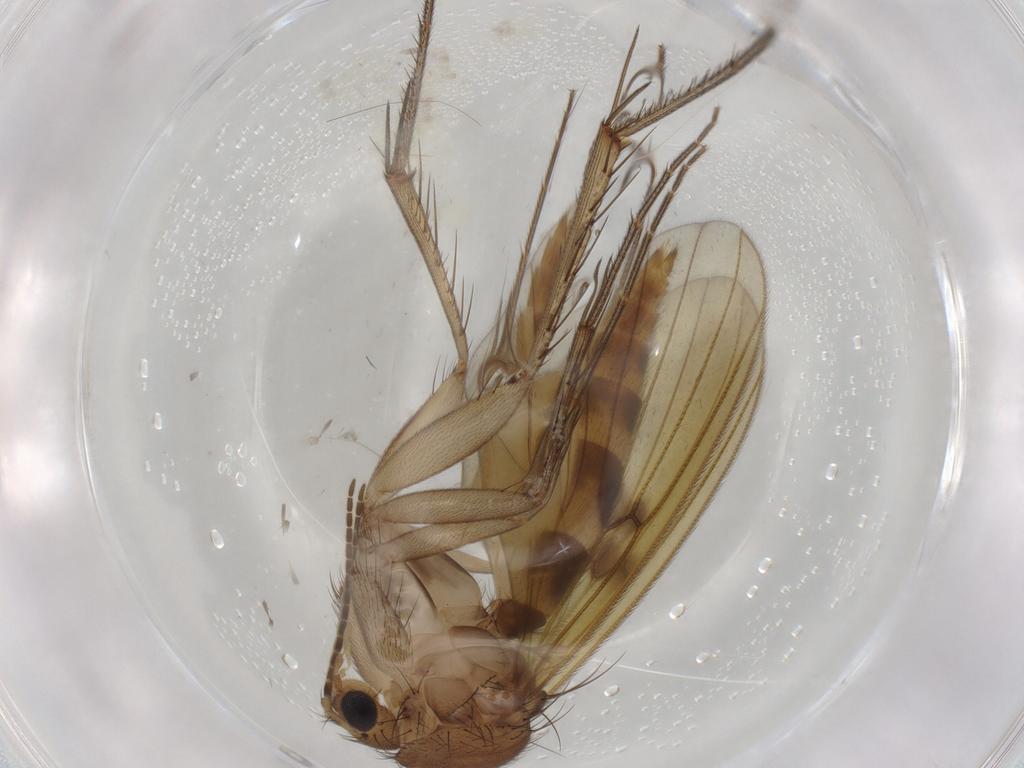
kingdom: Animalia
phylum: Arthropoda
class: Insecta
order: Diptera
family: Mycetophilidae
